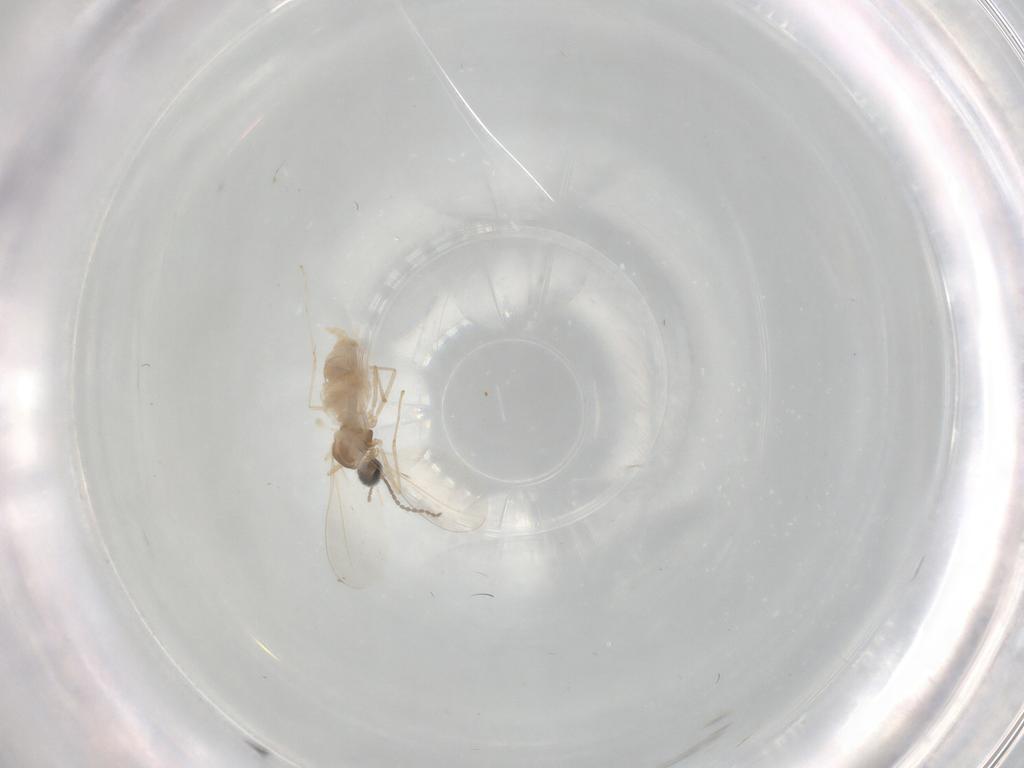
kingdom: Animalia
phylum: Arthropoda
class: Insecta
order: Diptera
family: Cecidomyiidae
